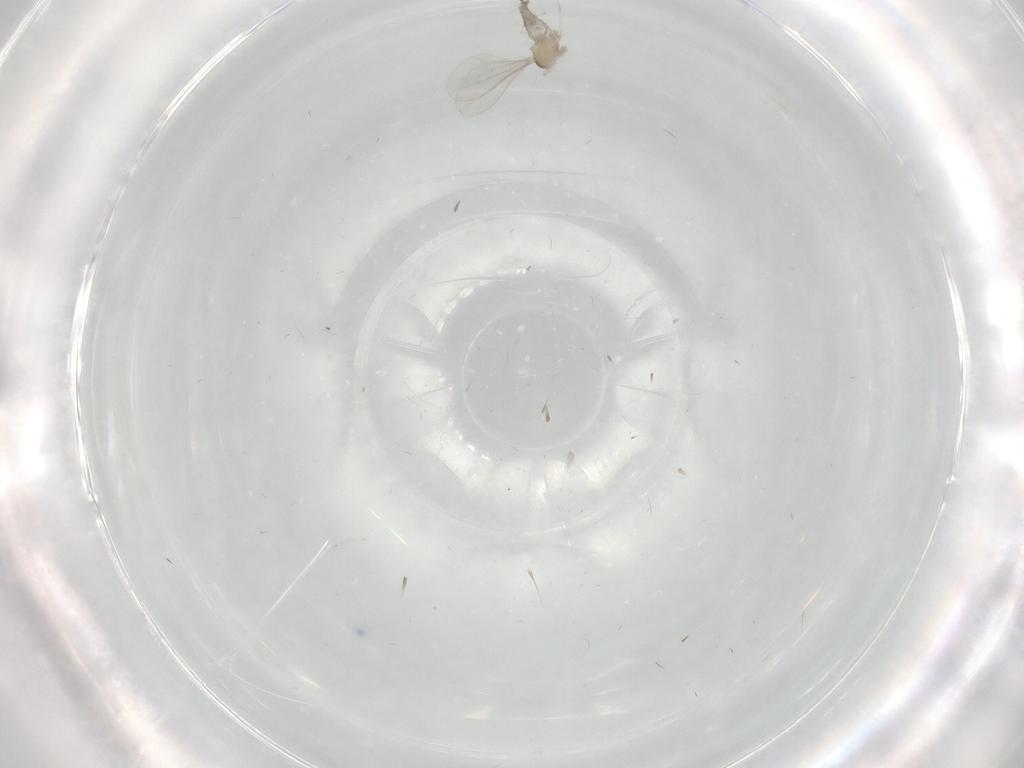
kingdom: Animalia
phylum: Arthropoda
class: Insecta
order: Diptera
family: Cecidomyiidae
